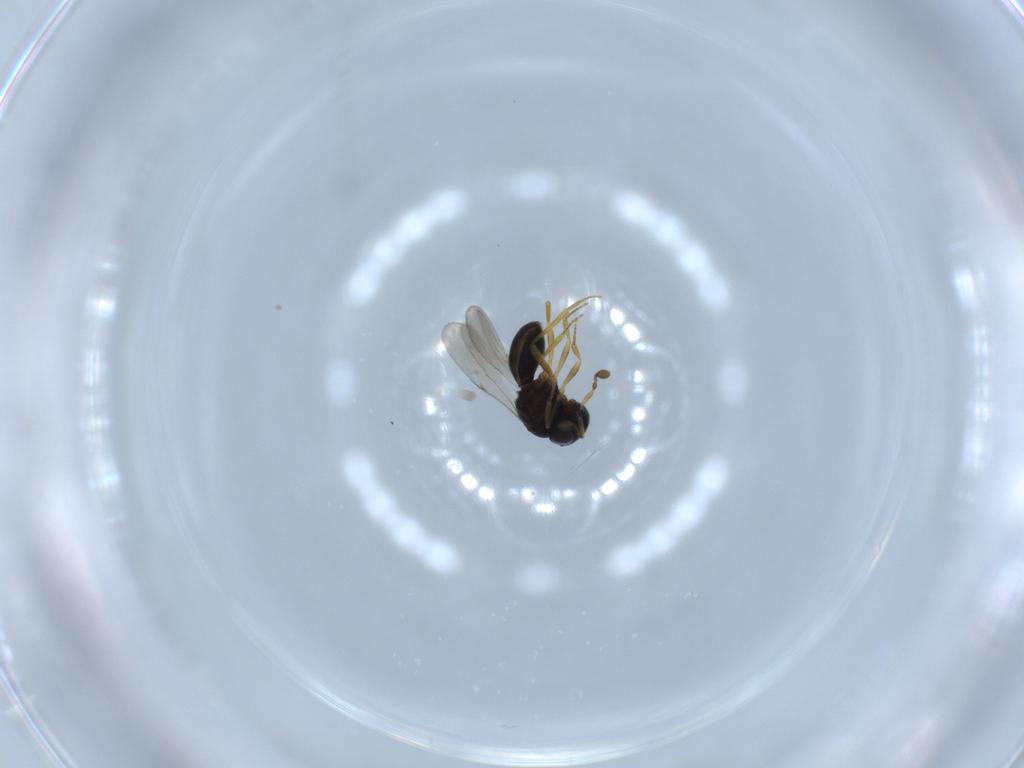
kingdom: Animalia
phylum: Arthropoda
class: Insecta
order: Hymenoptera
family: Scelionidae
